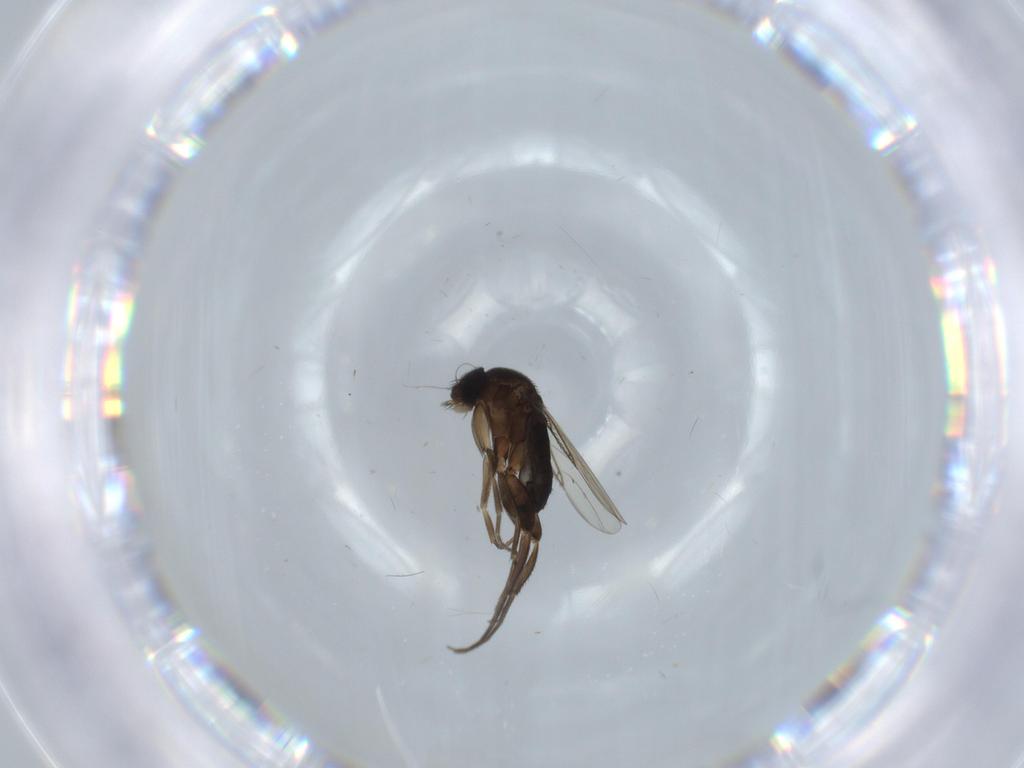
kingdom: Animalia
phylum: Arthropoda
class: Insecta
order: Diptera
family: Phoridae
